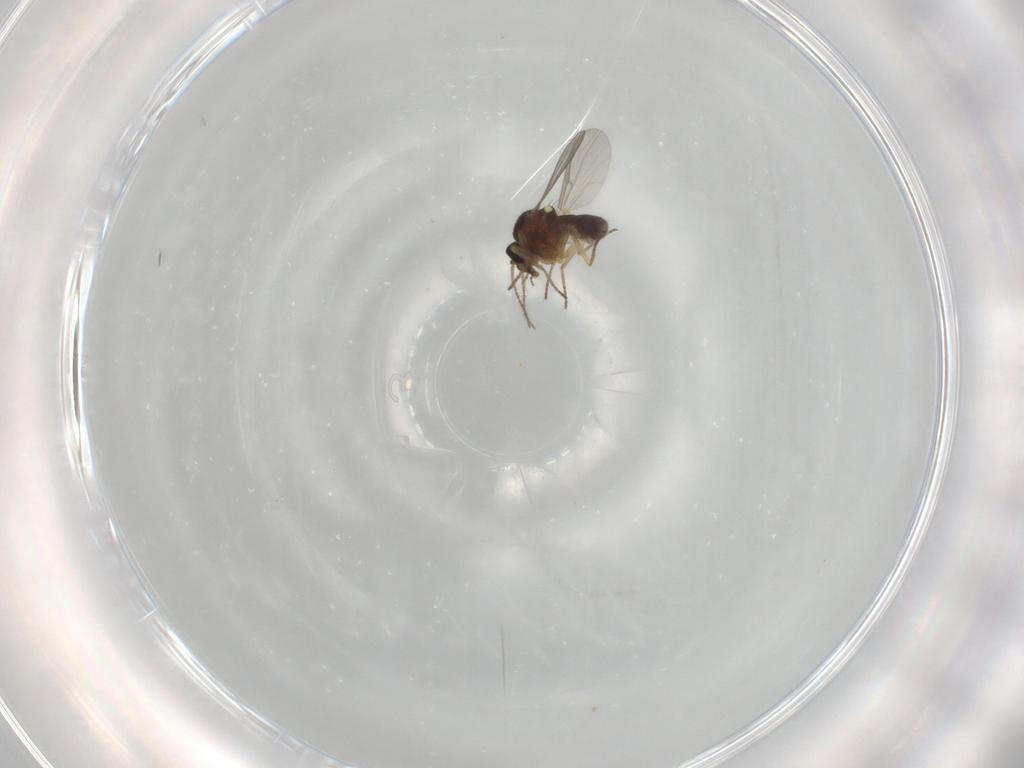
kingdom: Animalia
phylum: Arthropoda
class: Insecta
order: Diptera
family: Ceratopogonidae
